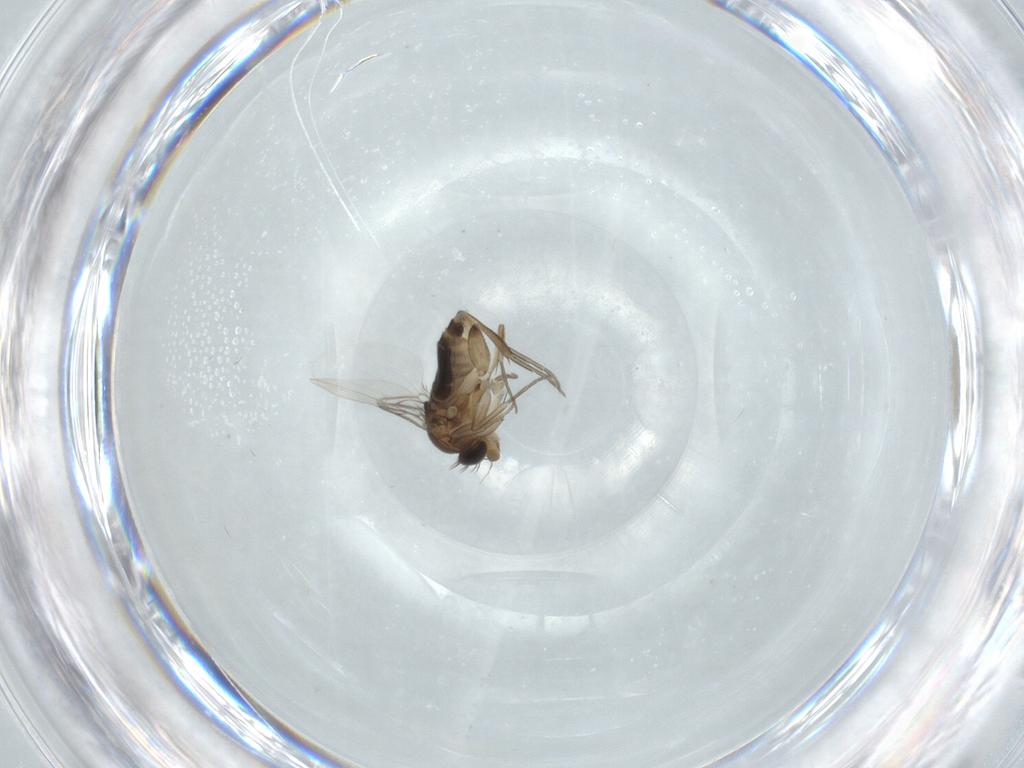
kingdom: Animalia
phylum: Arthropoda
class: Insecta
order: Diptera
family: Phoridae
